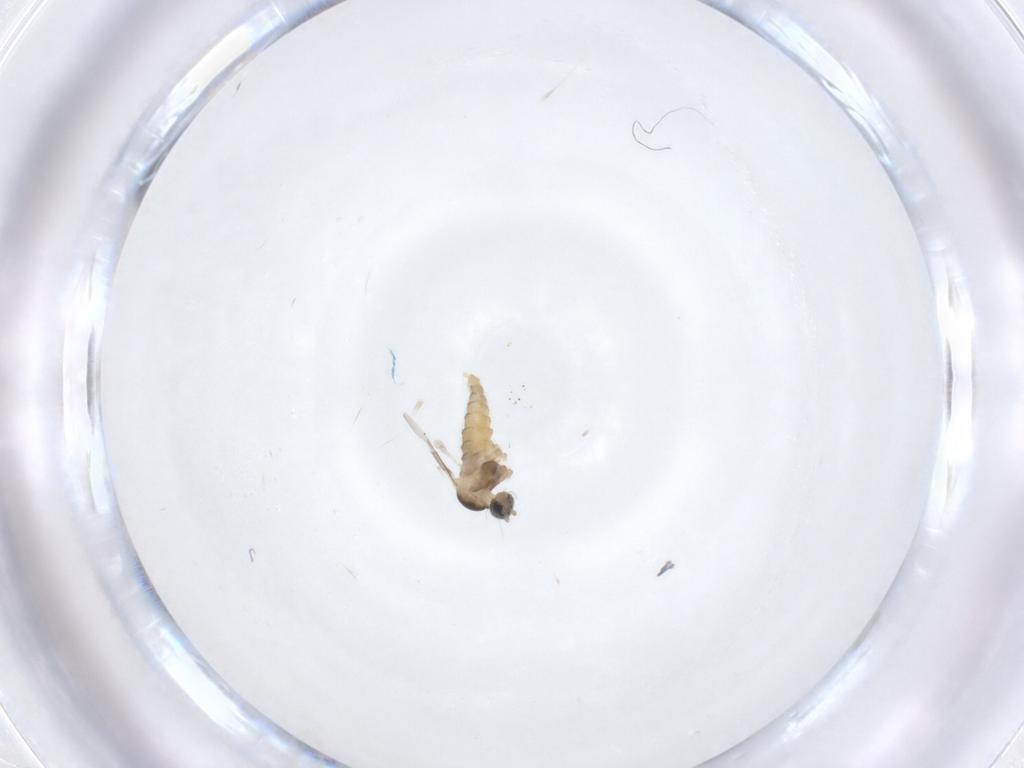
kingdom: Animalia
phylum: Arthropoda
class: Insecta
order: Diptera
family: Cecidomyiidae
